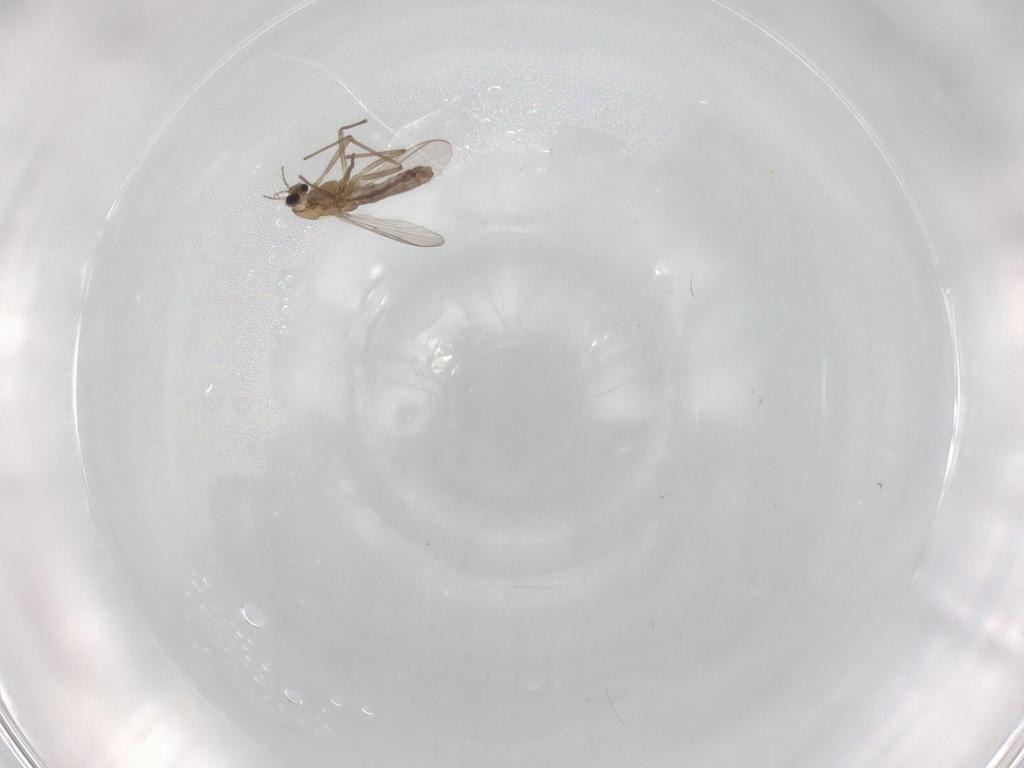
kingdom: Animalia
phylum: Arthropoda
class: Insecta
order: Diptera
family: Chironomidae
